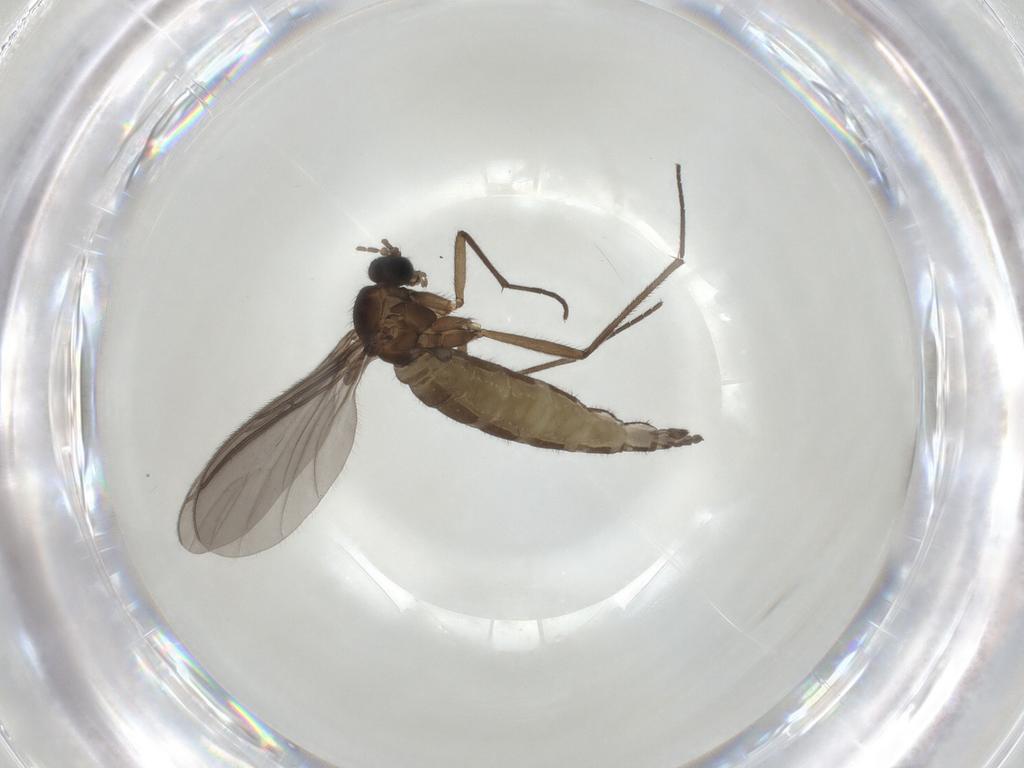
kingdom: Animalia
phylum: Arthropoda
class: Insecta
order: Diptera
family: Sciaridae
